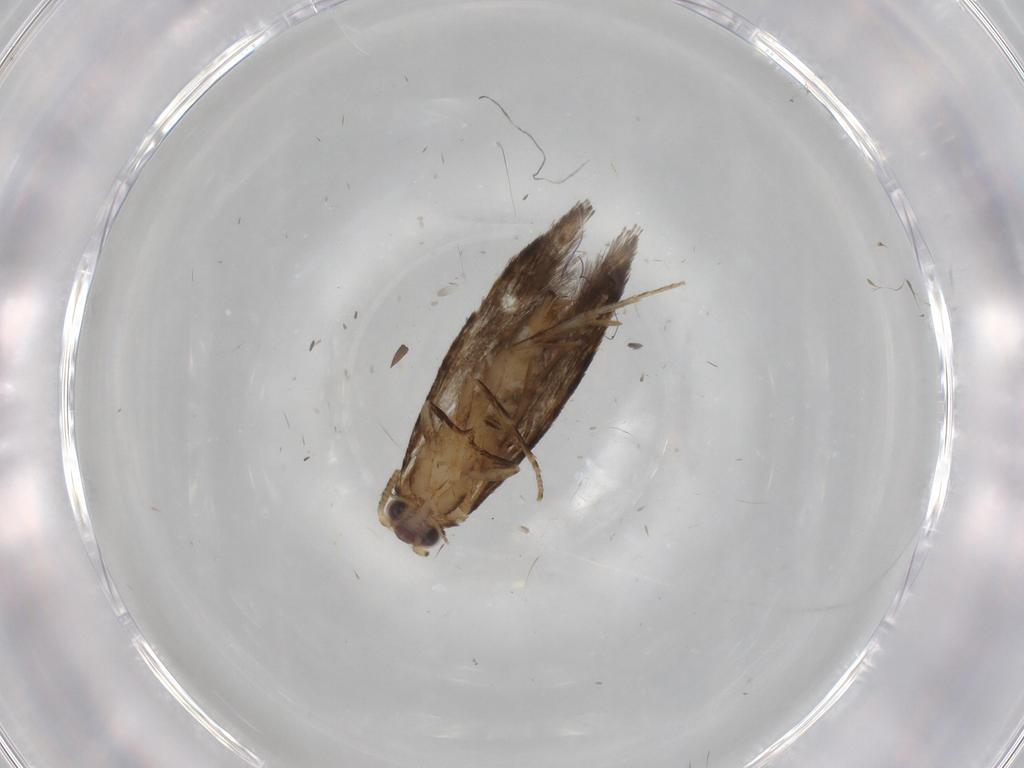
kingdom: Animalia
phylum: Arthropoda
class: Insecta
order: Lepidoptera
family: Tineidae
